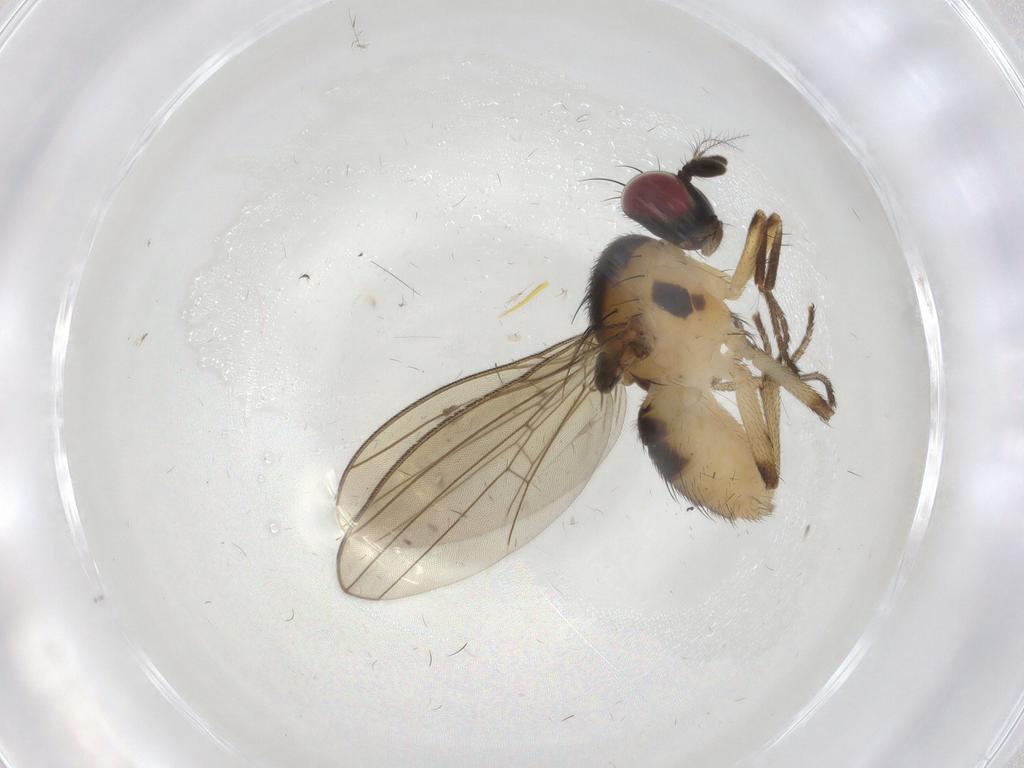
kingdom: Animalia
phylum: Arthropoda
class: Insecta
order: Diptera
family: Lauxaniidae
